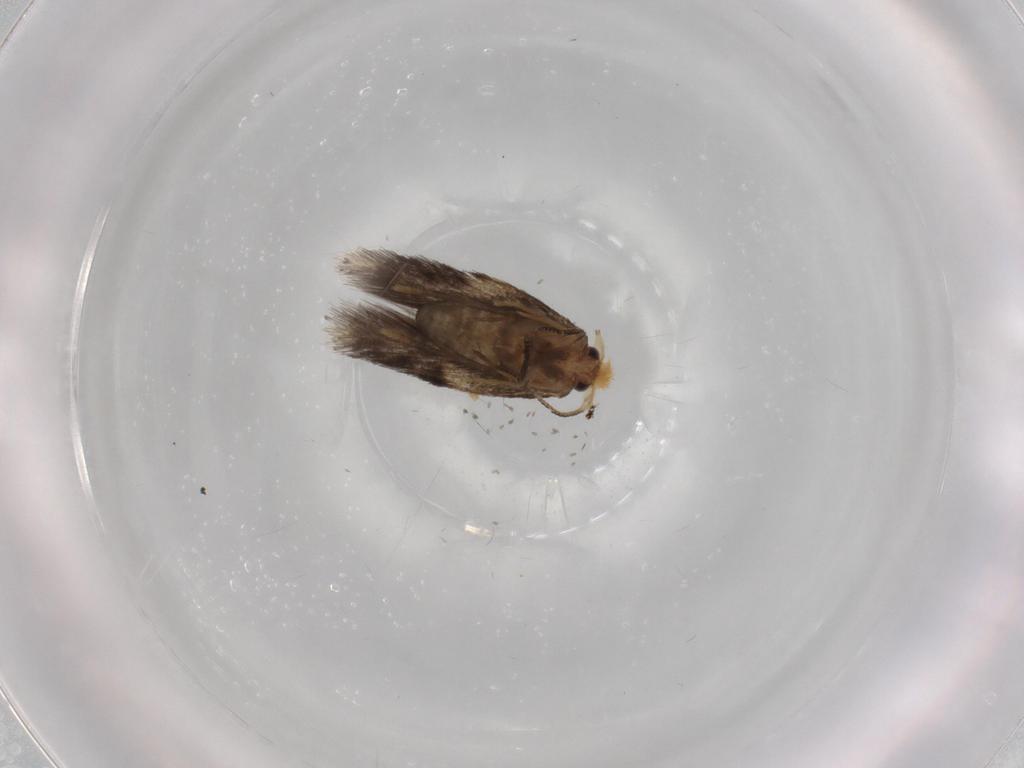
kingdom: Animalia
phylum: Arthropoda
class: Insecta
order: Lepidoptera
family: Nepticulidae
